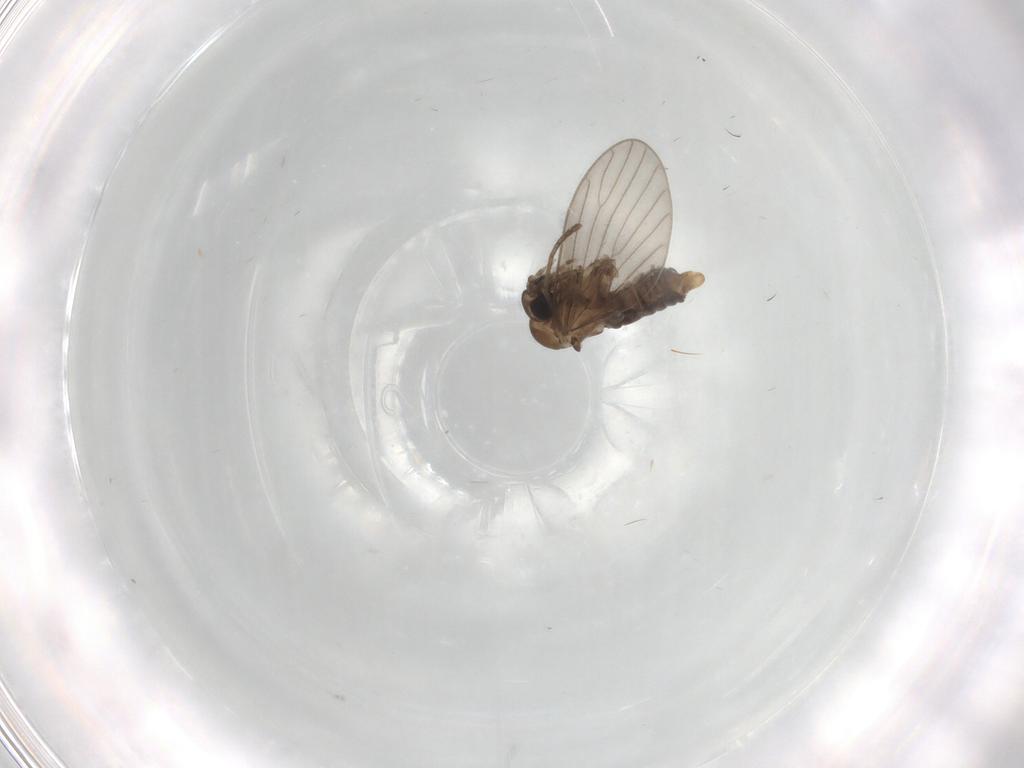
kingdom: Animalia
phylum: Arthropoda
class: Insecta
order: Diptera
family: Psychodidae
